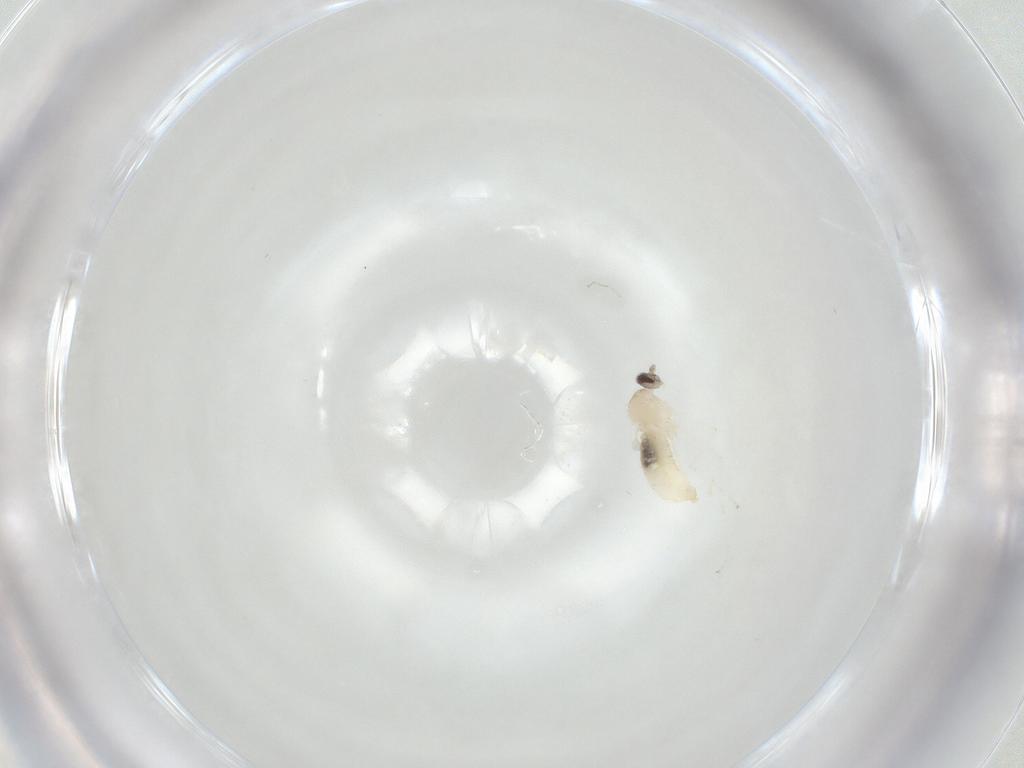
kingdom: Animalia
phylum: Arthropoda
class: Insecta
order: Diptera
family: Cecidomyiidae
